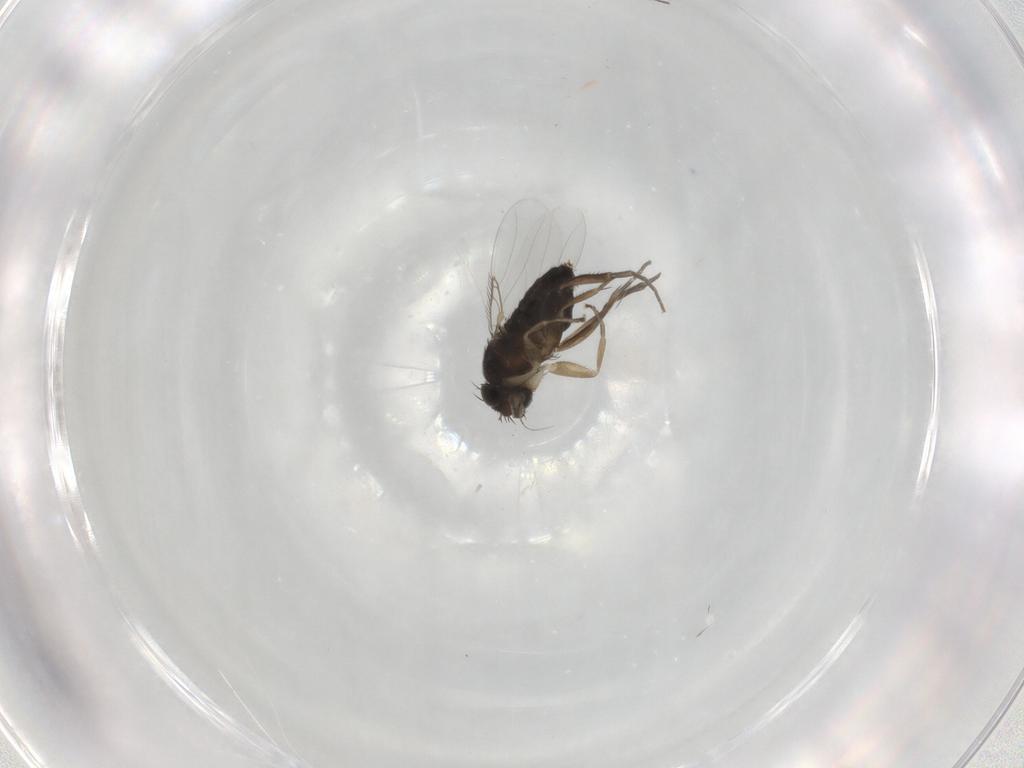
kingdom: Animalia
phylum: Arthropoda
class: Insecta
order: Diptera
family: Phoridae
